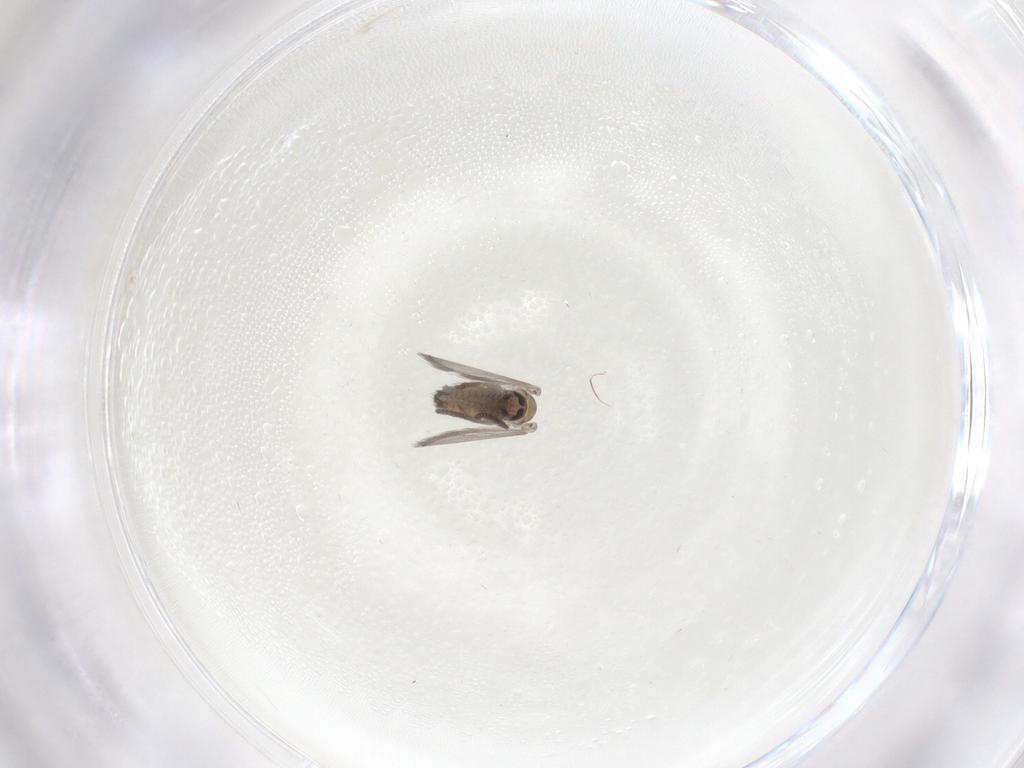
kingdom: Animalia
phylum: Arthropoda
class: Insecta
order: Diptera
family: Psychodidae
